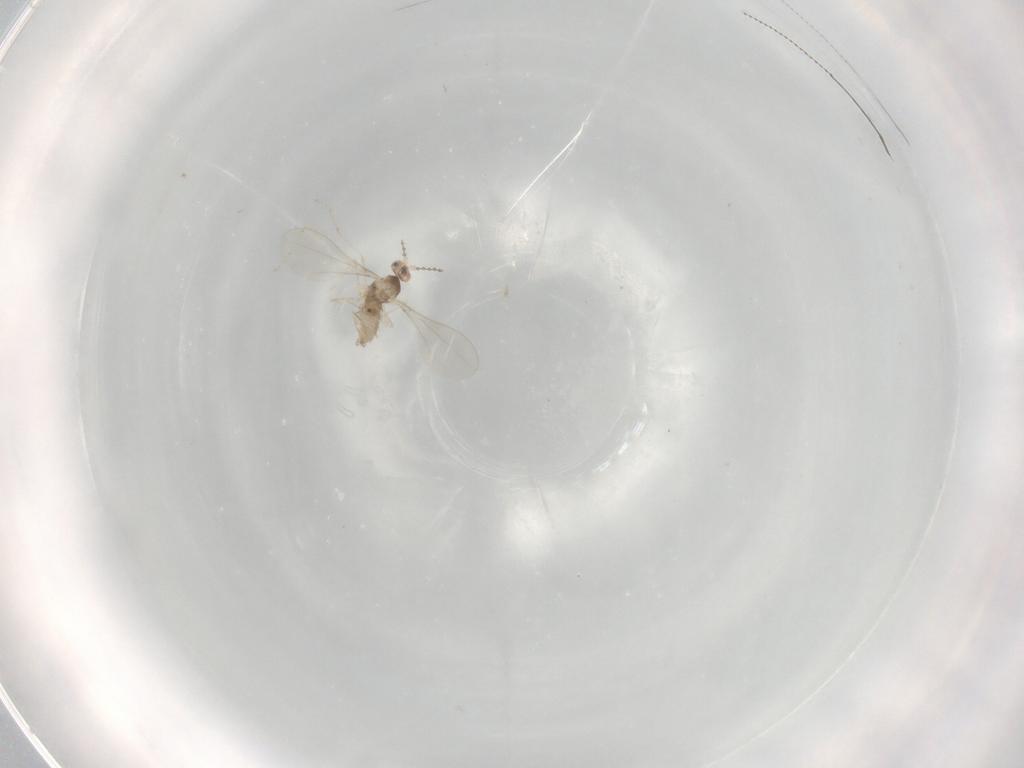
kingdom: Animalia
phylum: Arthropoda
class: Insecta
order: Diptera
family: Cecidomyiidae
